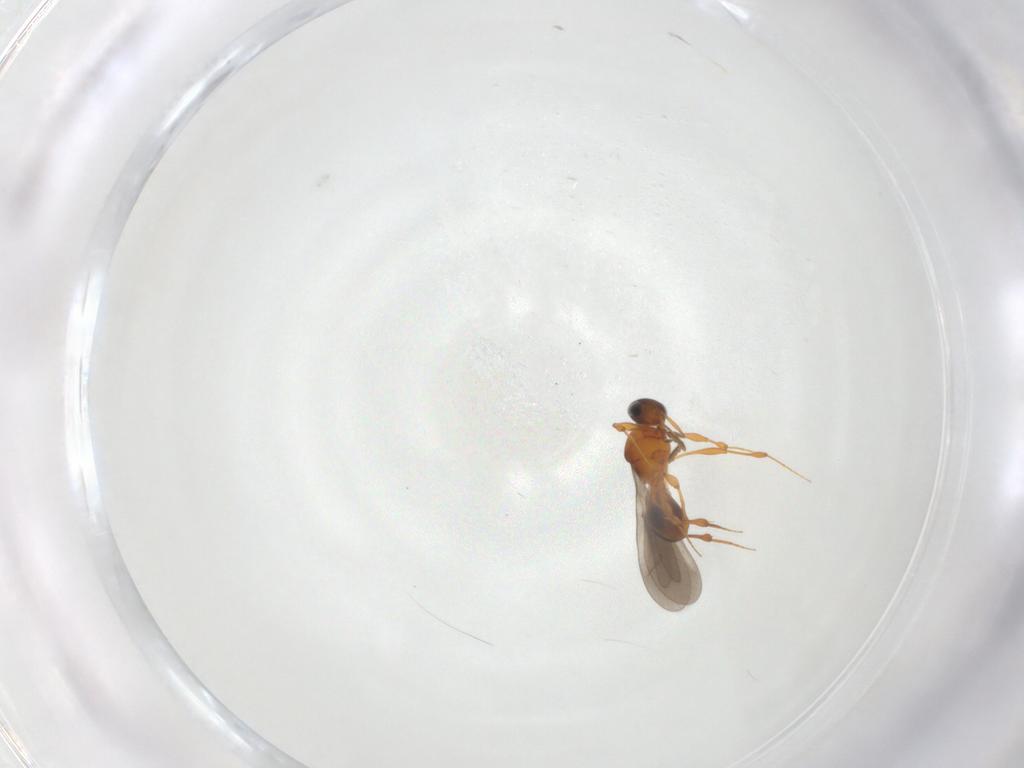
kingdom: Animalia
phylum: Arthropoda
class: Insecta
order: Hymenoptera
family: Platygastridae
